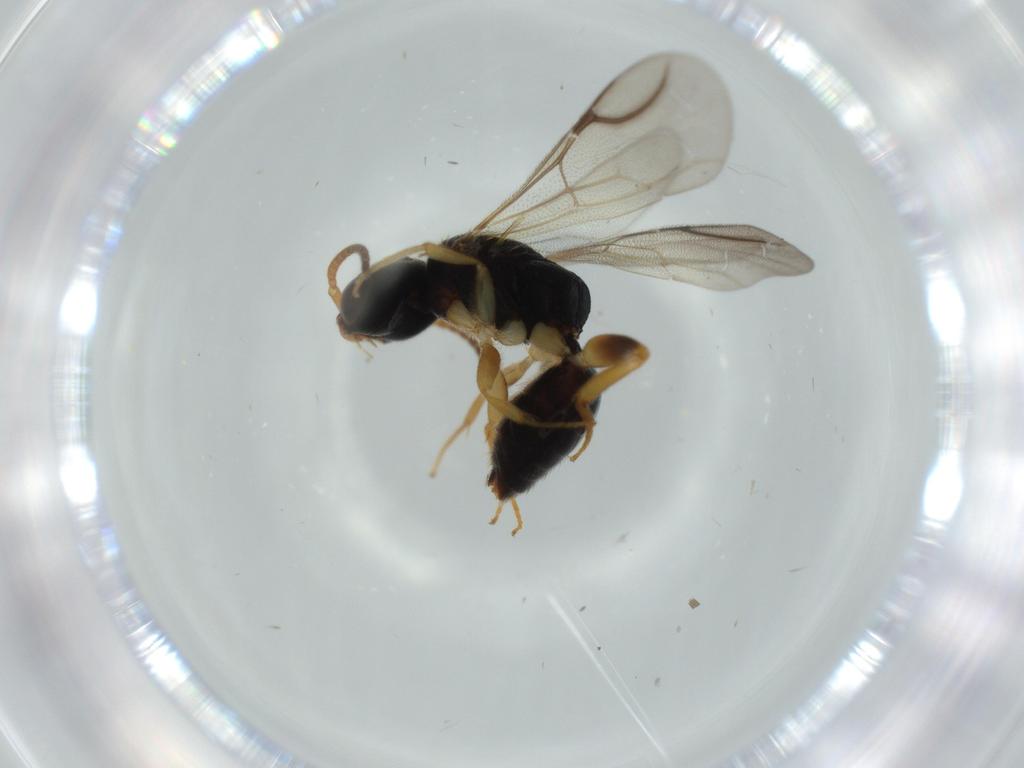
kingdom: Animalia
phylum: Arthropoda
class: Insecta
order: Hymenoptera
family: Bethylidae
